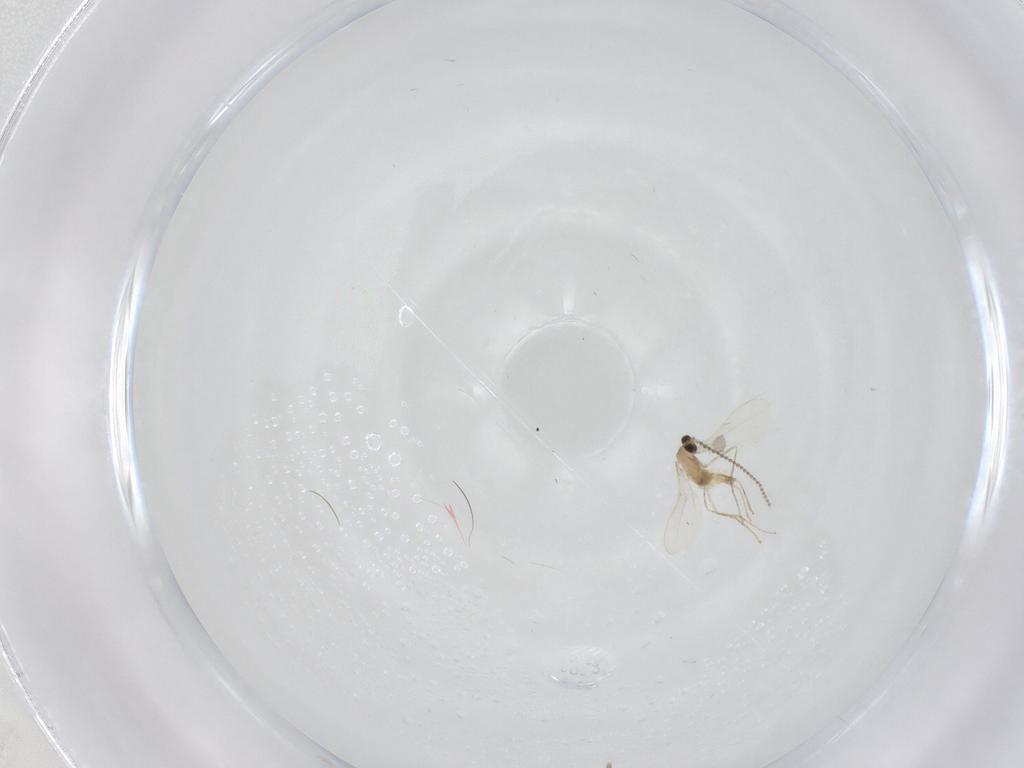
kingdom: Animalia
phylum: Arthropoda
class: Insecta
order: Diptera
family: Cecidomyiidae
